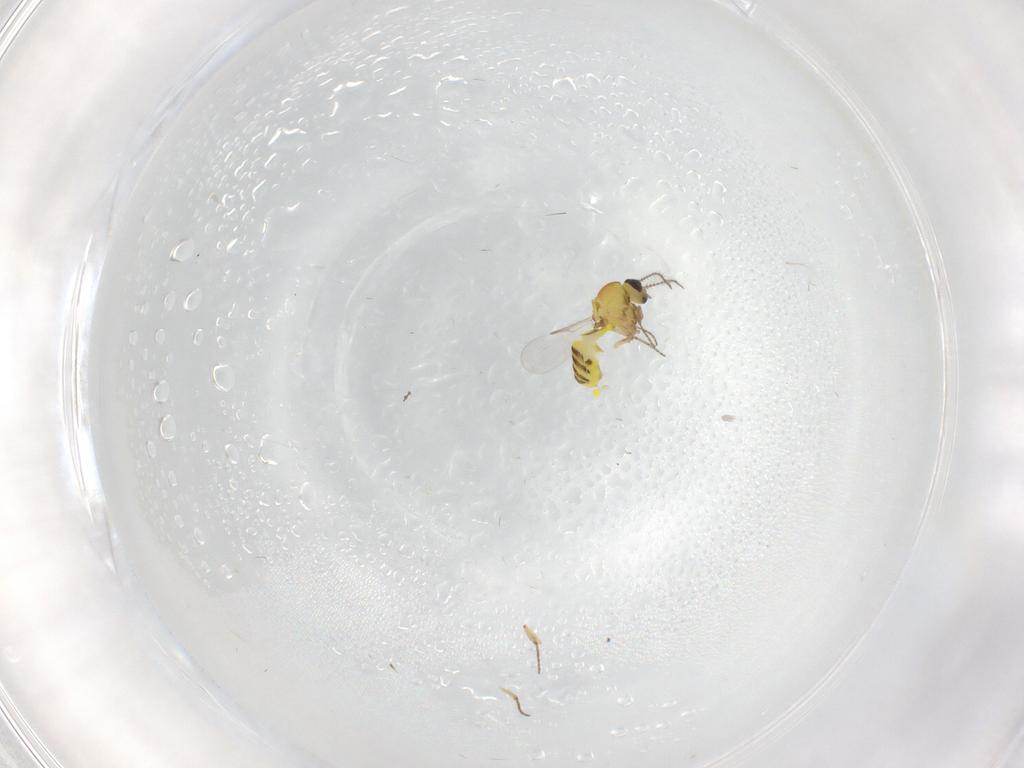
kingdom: Animalia
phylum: Arthropoda
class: Insecta
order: Diptera
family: Ceratopogonidae
